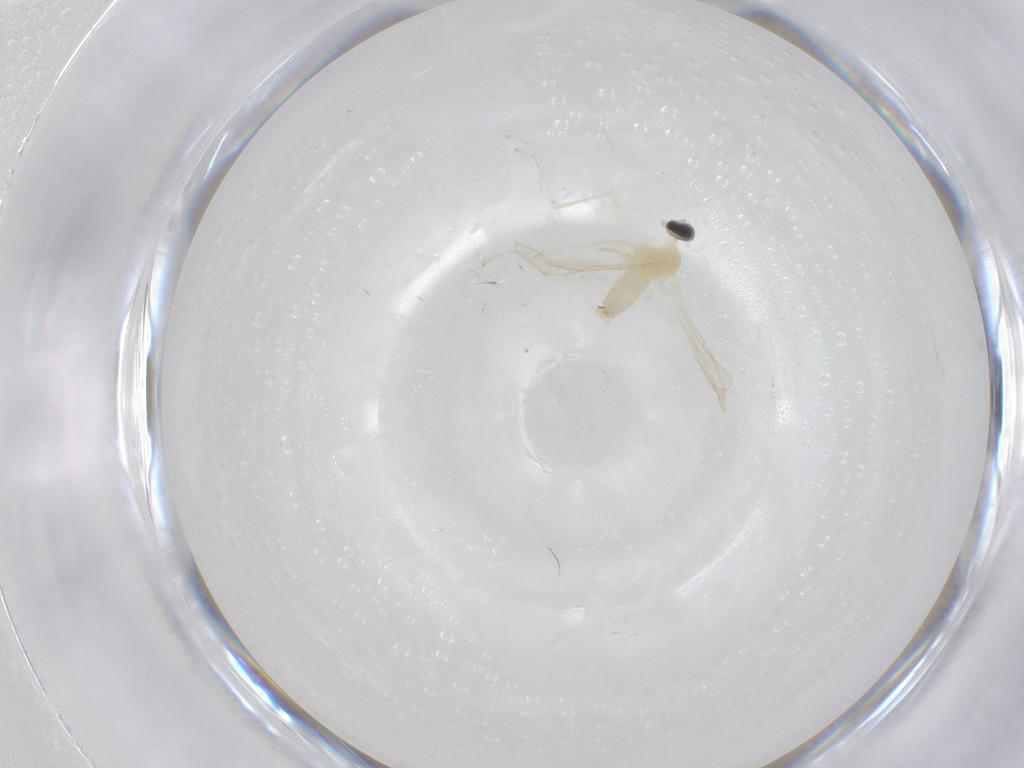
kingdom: Animalia
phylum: Arthropoda
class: Insecta
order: Diptera
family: Cecidomyiidae
